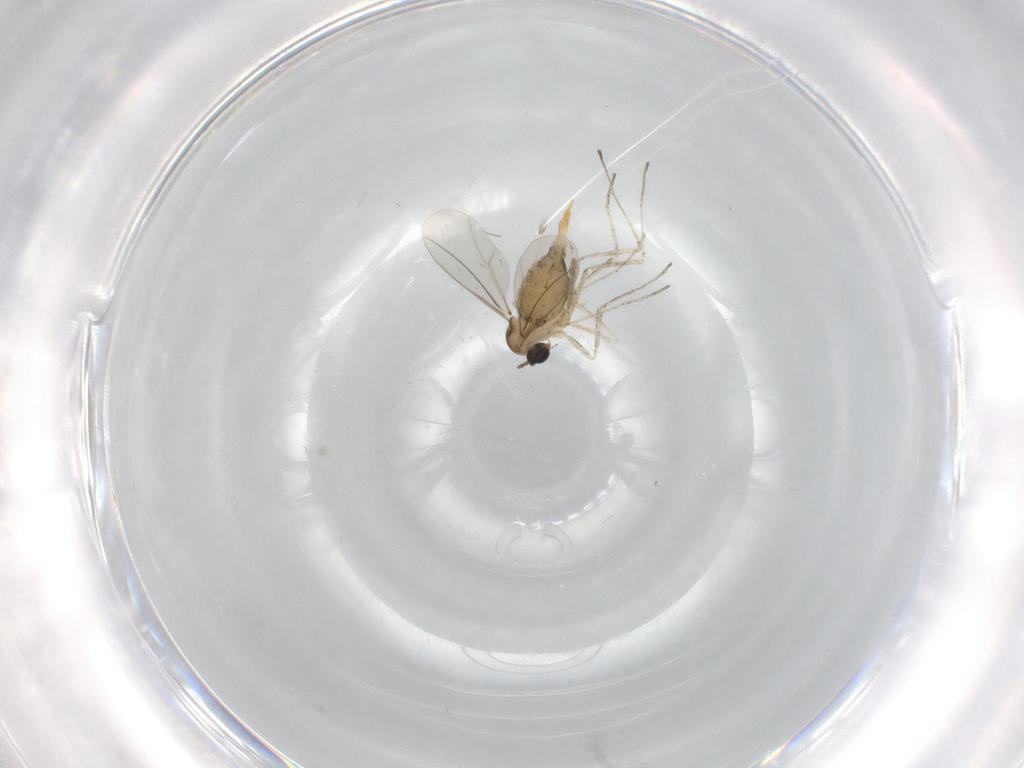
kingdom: Animalia
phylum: Arthropoda
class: Insecta
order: Diptera
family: Cecidomyiidae
